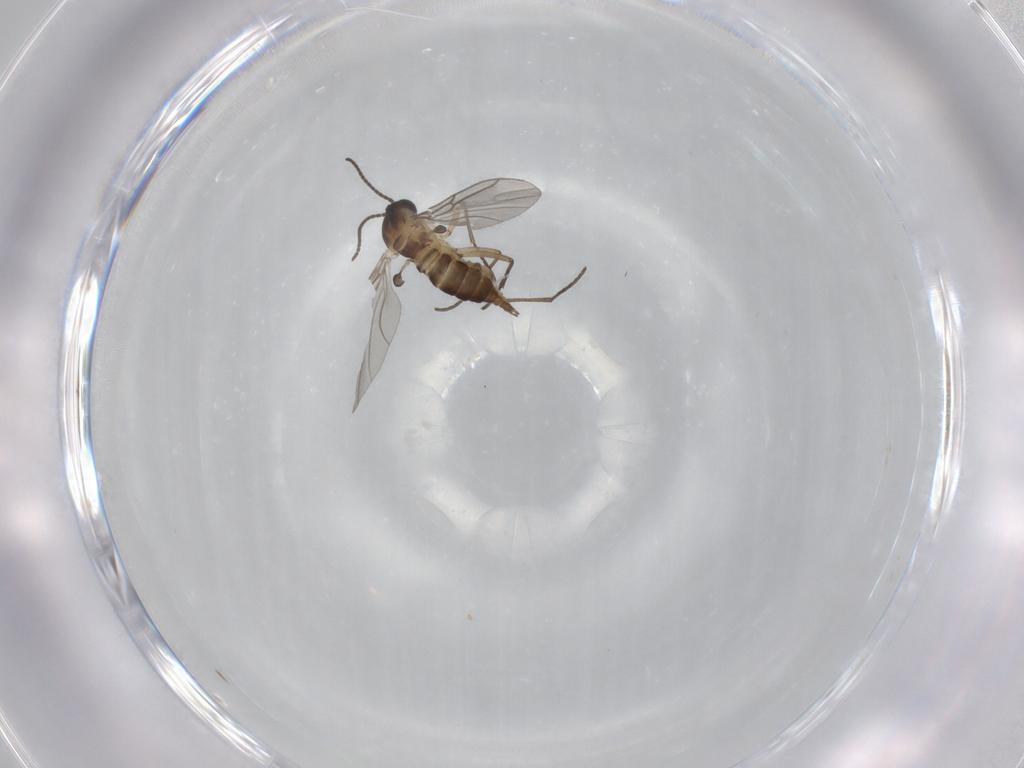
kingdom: Animalia
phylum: Arthropoda
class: Insecta
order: Diptera
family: Sciaridae
